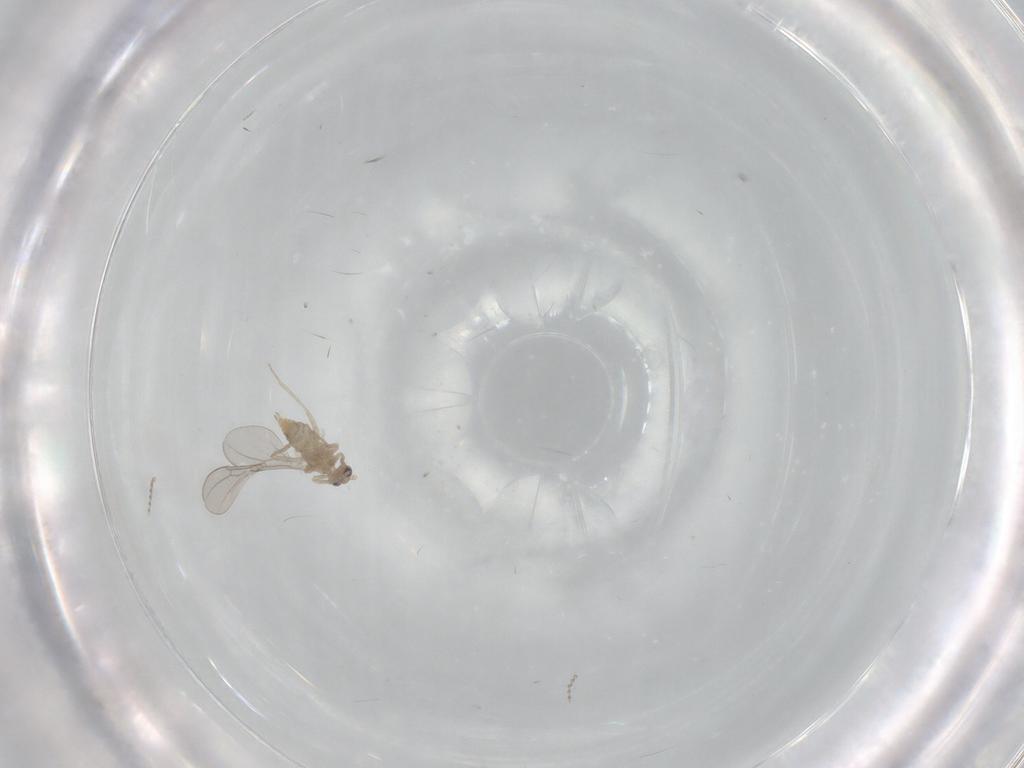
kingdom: Animalia
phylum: Arthropoda
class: Insecta
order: Diptera
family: Cecidomyiidae
